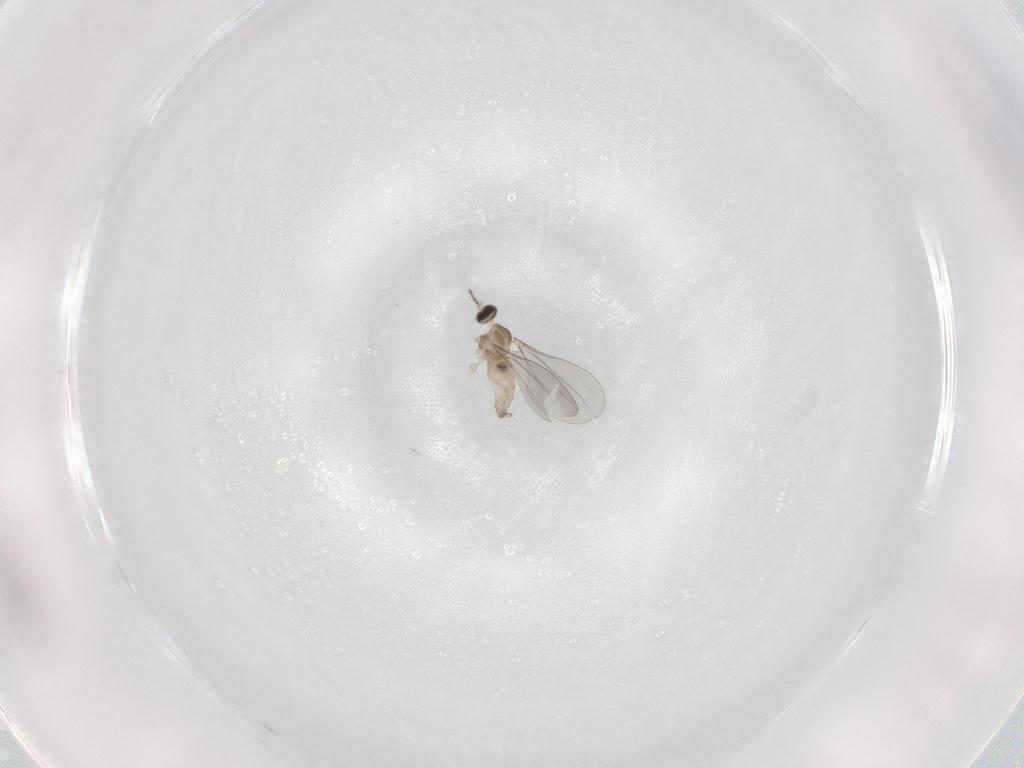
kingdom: Animalia
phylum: Arthropoda
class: Insecta
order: Diptera
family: Cecidomyiidae
